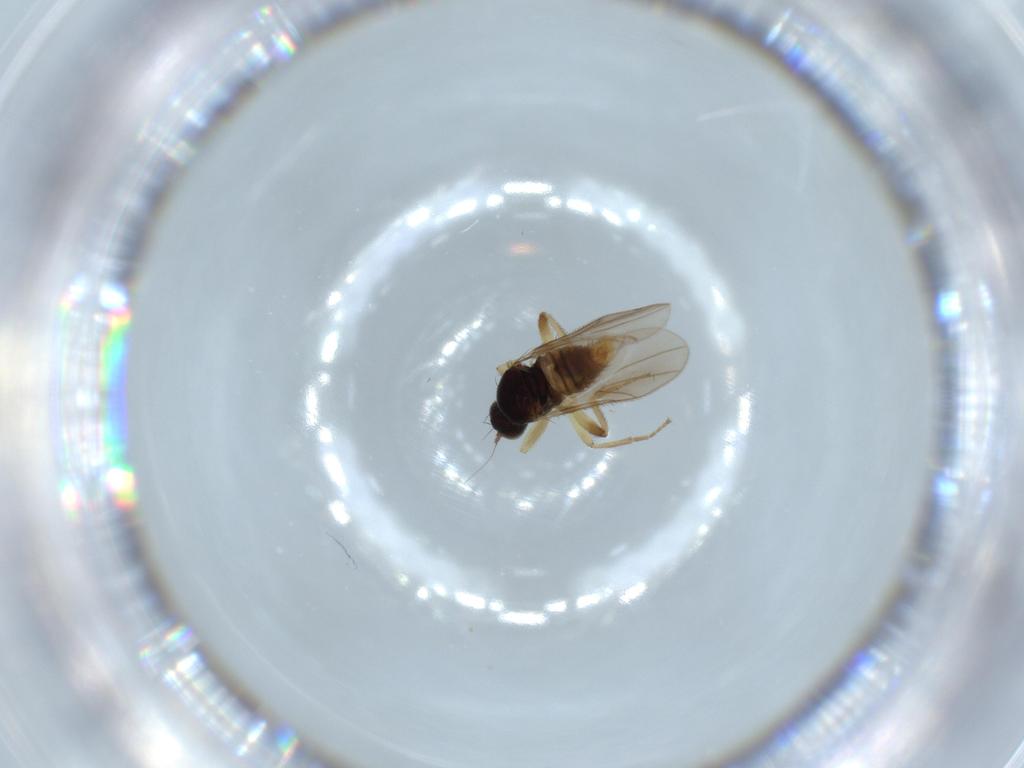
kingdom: Animalia
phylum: Arthropoda
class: Insecta
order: Diptera
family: Hybotidae
